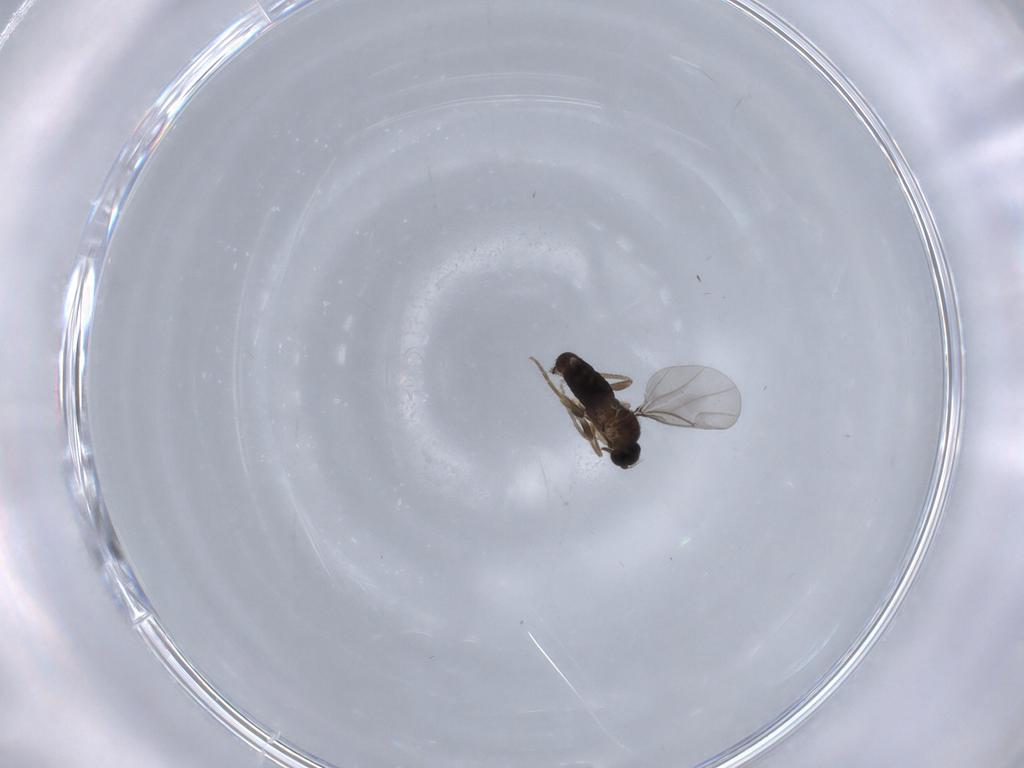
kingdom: Animalia
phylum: Arthropoda
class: Insecta
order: Diptera
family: Phoridae
